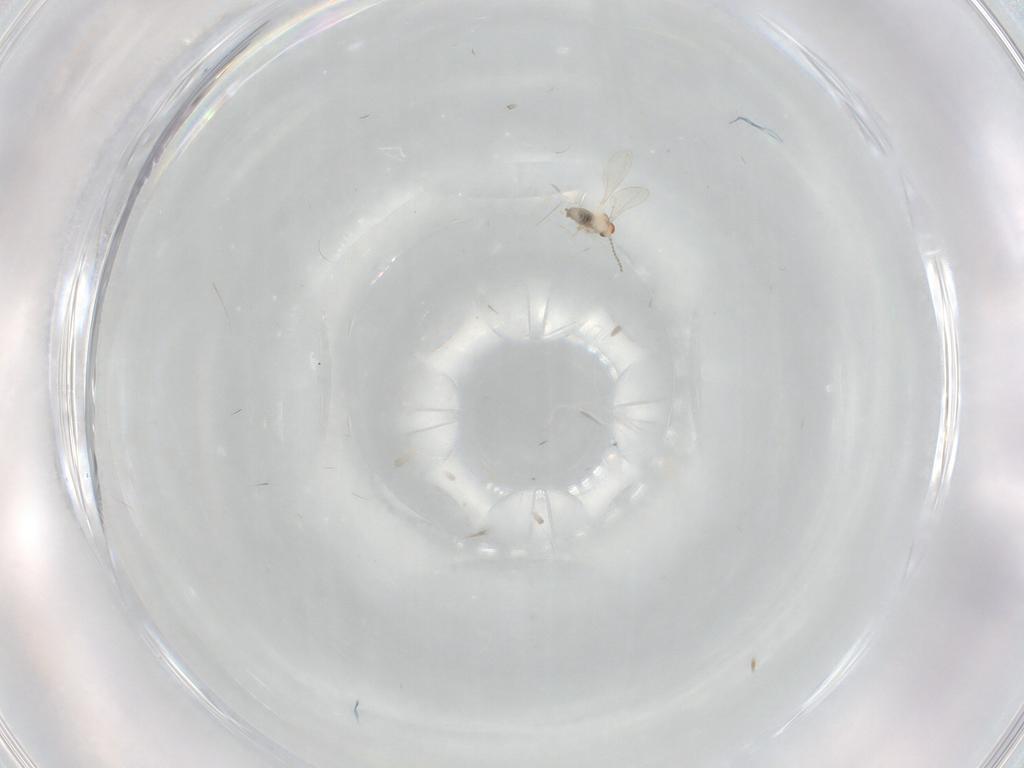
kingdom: Animalia
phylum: Arthropoda
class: Insecta
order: Diptera
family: Cecidomyiidae
